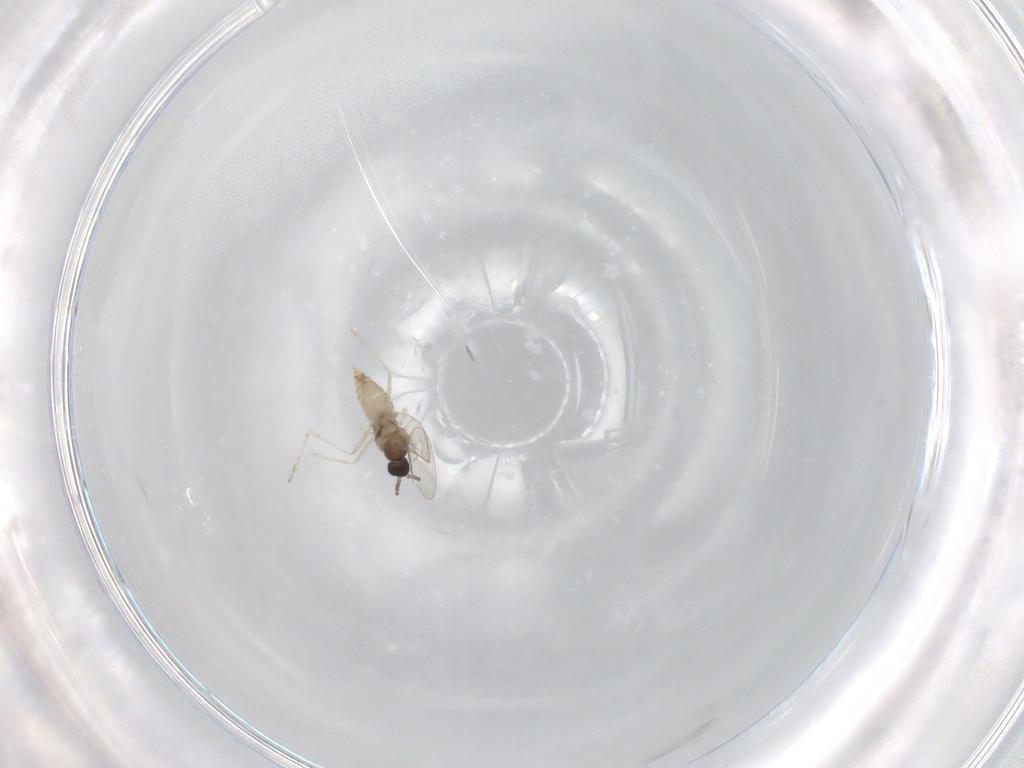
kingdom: Animalia
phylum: Arthropoda
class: Insecta
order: Diptera
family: Cecidomyiidae
